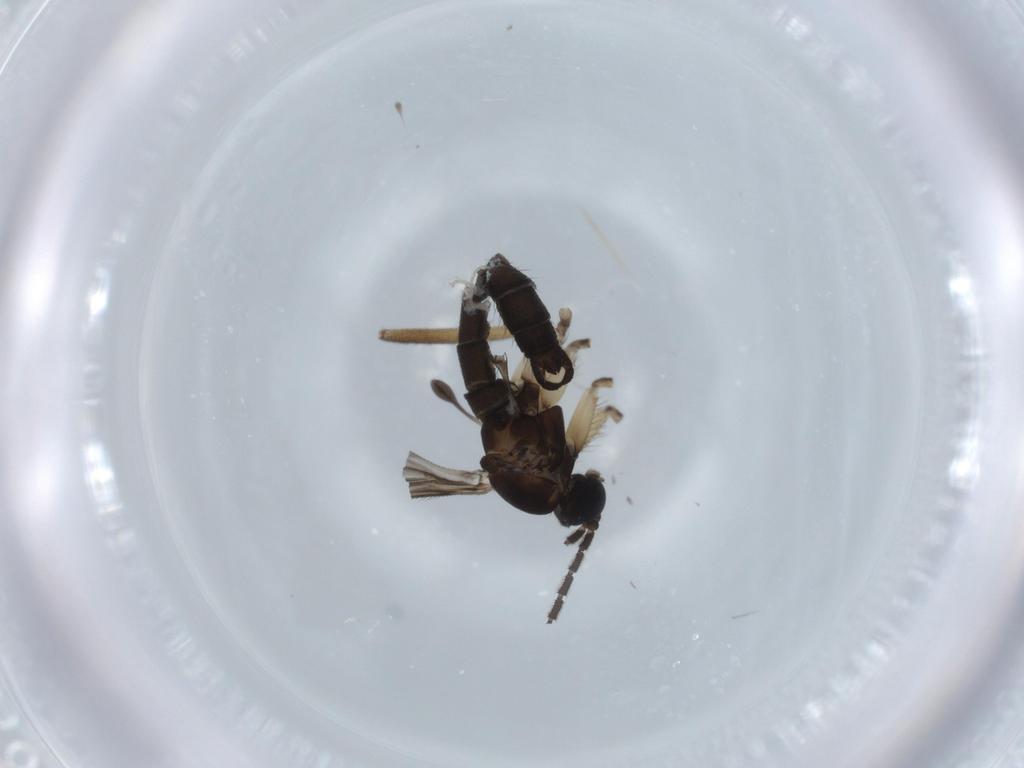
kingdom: Animalia
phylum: Arthropoda
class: Insecta
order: Diptera
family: Sciaridae
